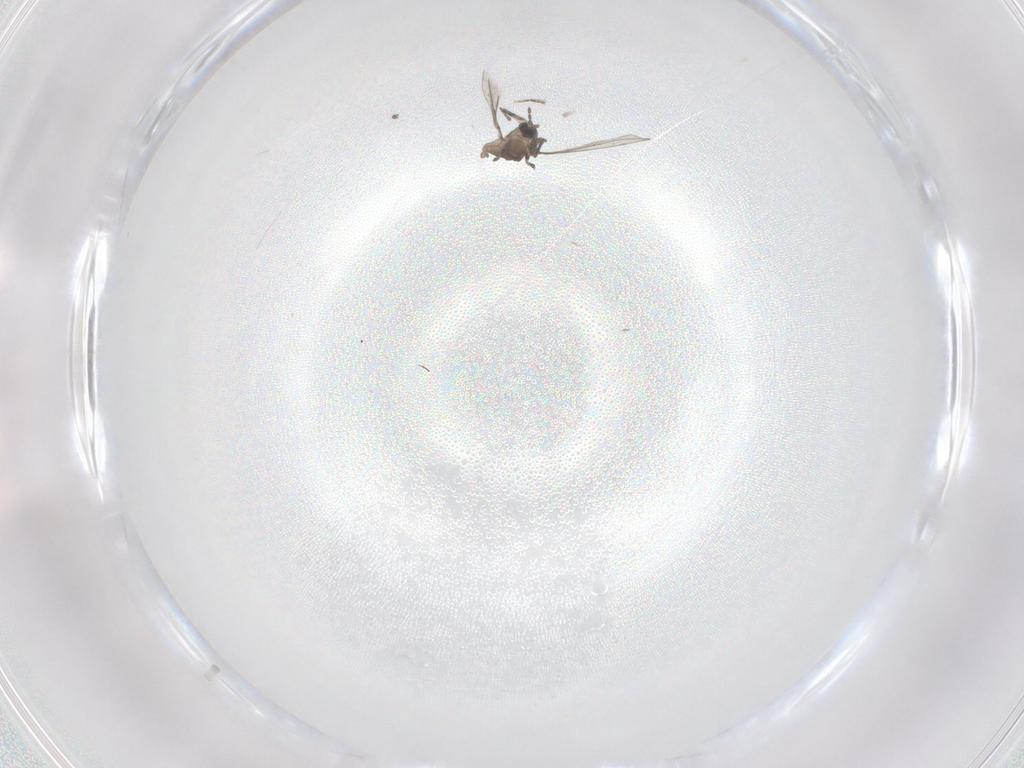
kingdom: Animalia
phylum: Arthropoda
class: Insecta
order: Diptera
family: Cecidomyiidae
